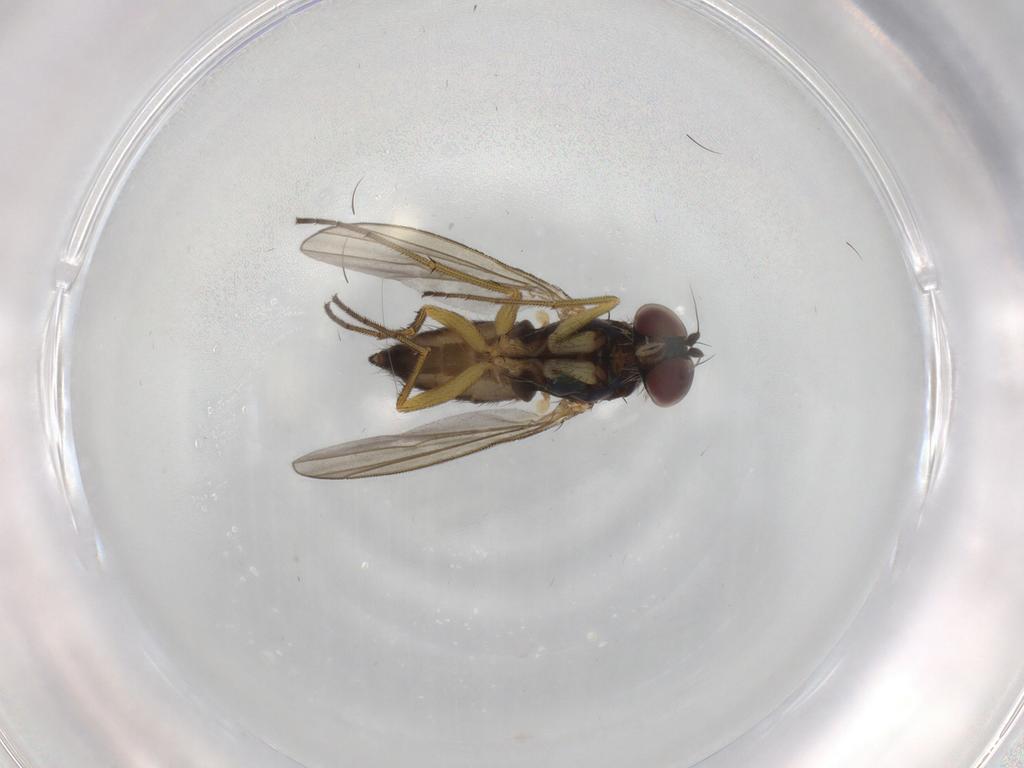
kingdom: Animalia
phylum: Arthropoda
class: Insecta
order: Diptera
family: Dolichopodidae
